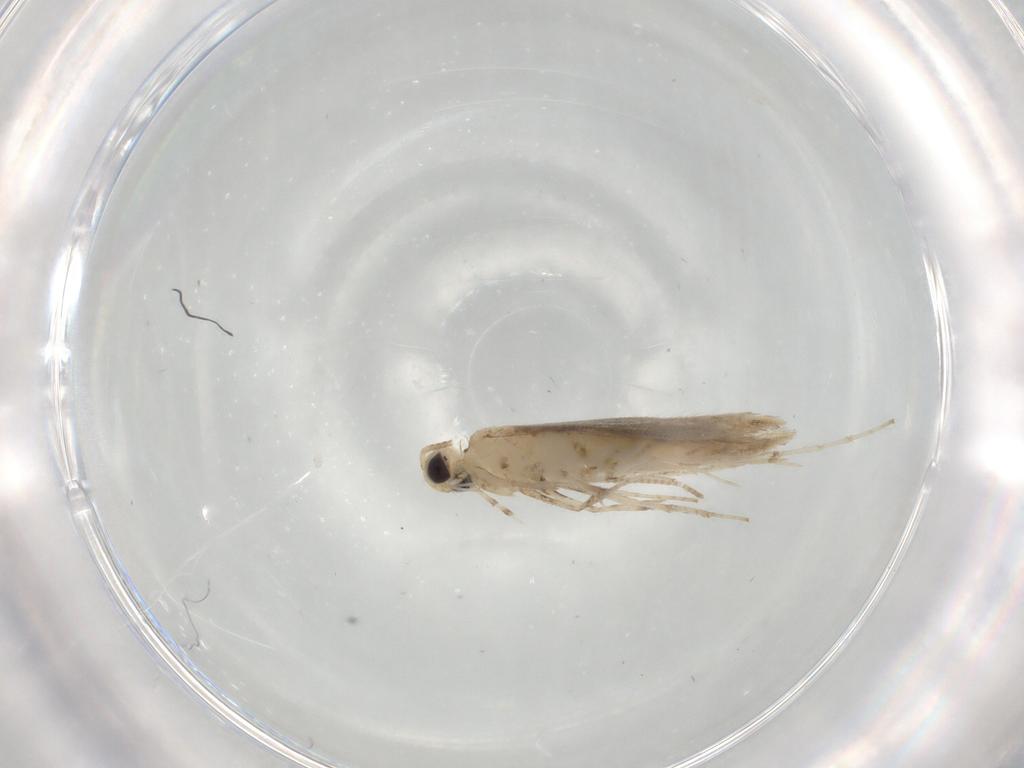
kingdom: Animalia
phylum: Arthropoda
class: Insecta
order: Lepidoptera
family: Gracillariidae
